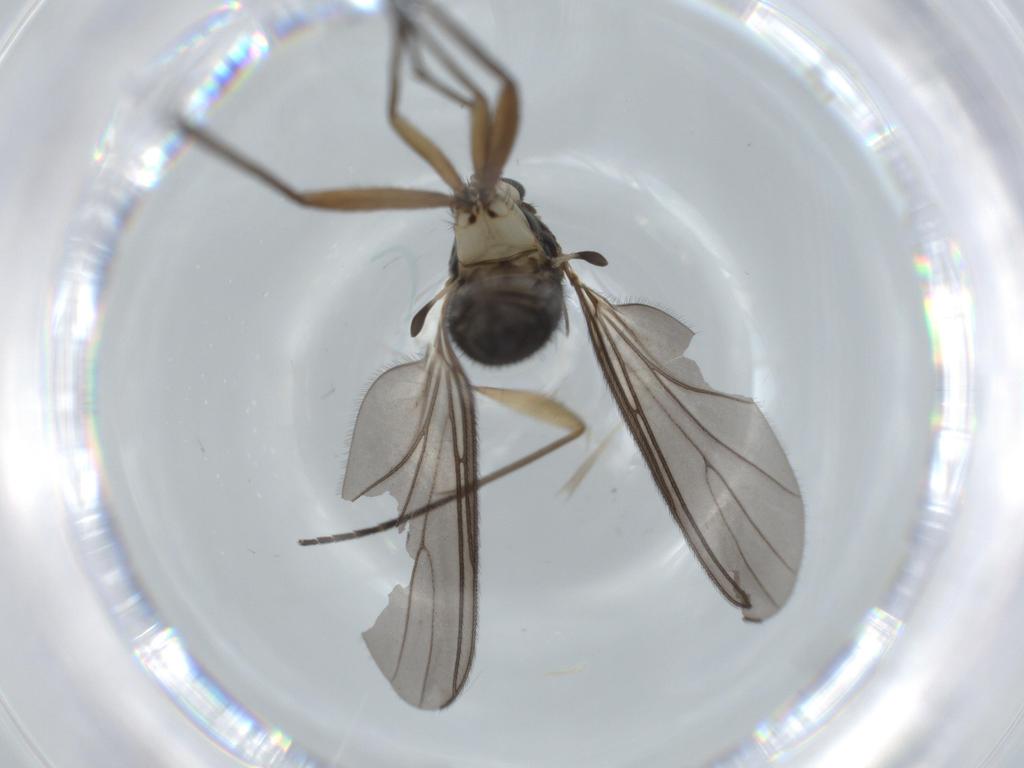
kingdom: Animalia
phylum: Arthropoda
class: Insecta
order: Diptera
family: Sciaridae
